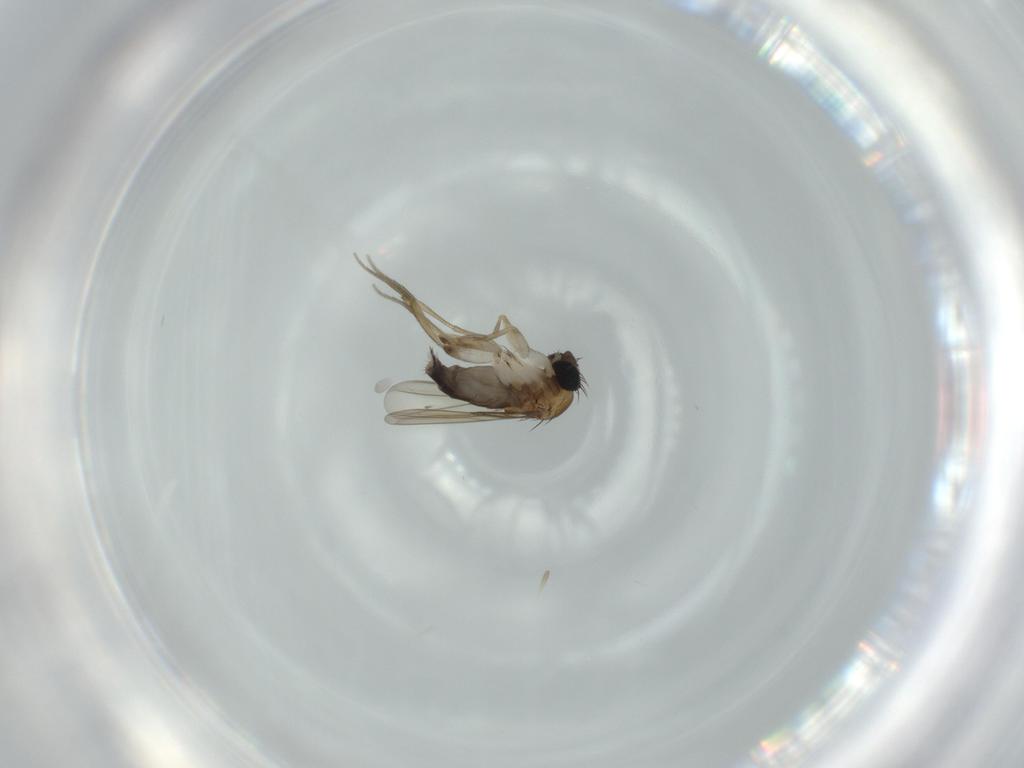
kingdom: Animalia
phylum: Arthropoda
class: Insecta
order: Diptera
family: Phoridae
